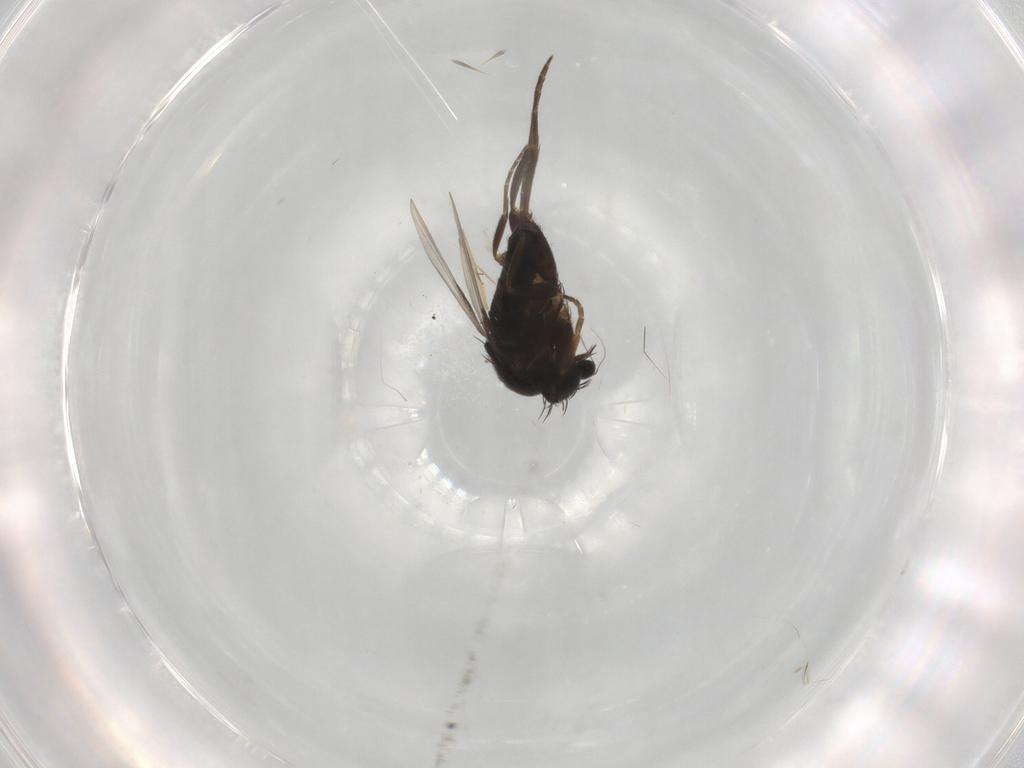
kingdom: Animalia
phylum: Arthropoda
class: Insecta
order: Diptera
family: Phoridae
